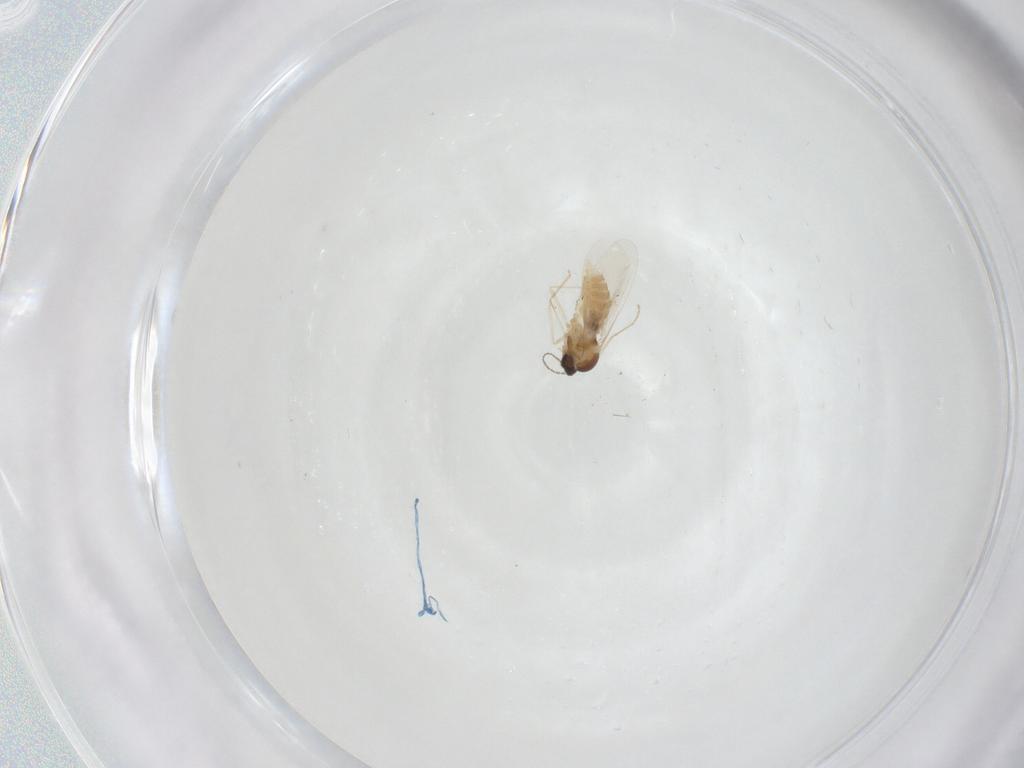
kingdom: Animalia
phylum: Arthropoda
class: Insecta
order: Diptera
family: Cecidomyiidae
